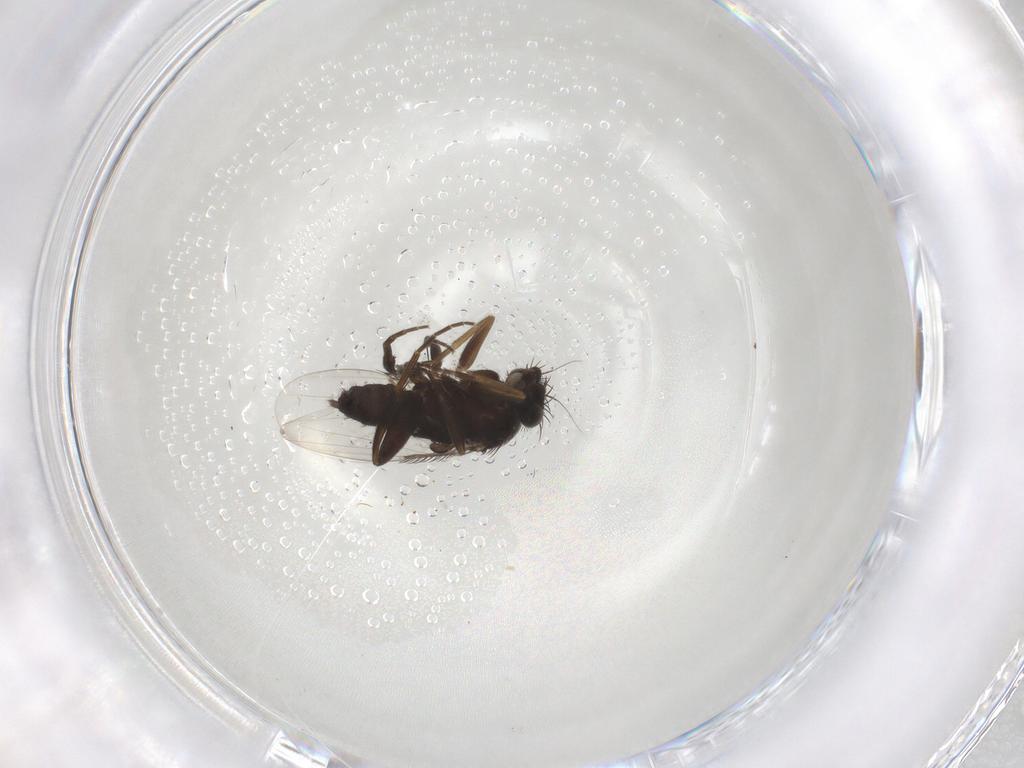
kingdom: Animalia
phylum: Arthropoda
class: Insecta
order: Diptera
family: Phoridae
